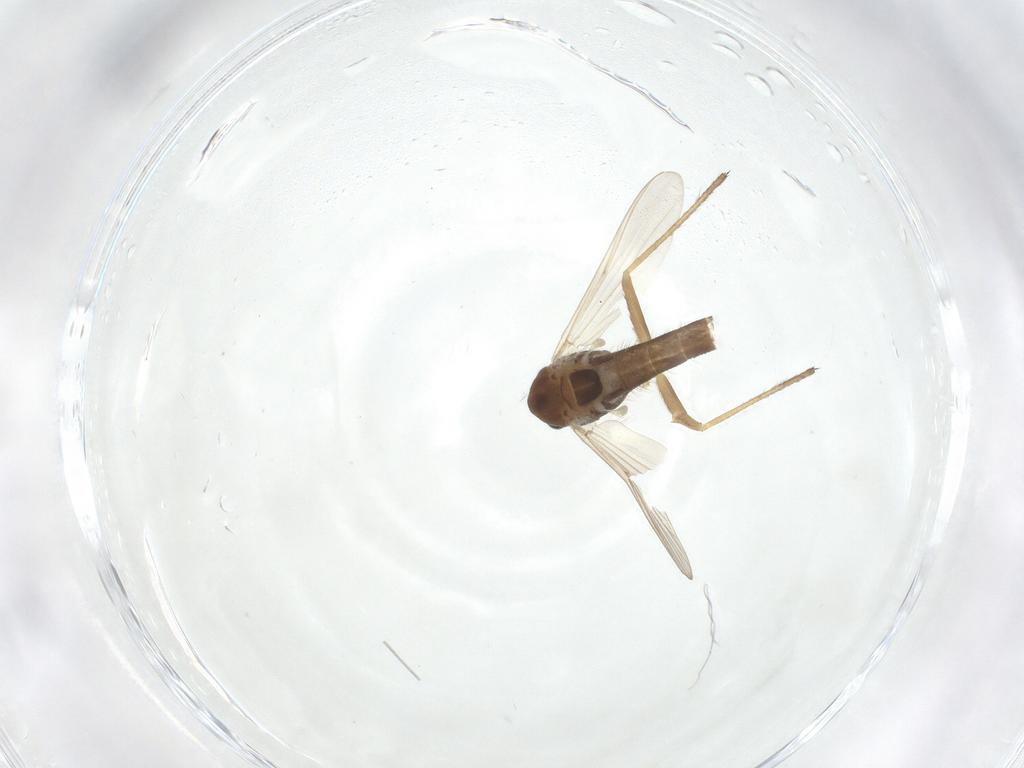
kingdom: Animalia
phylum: Arthropoda
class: Insecta
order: Diptera
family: Chironomidae
